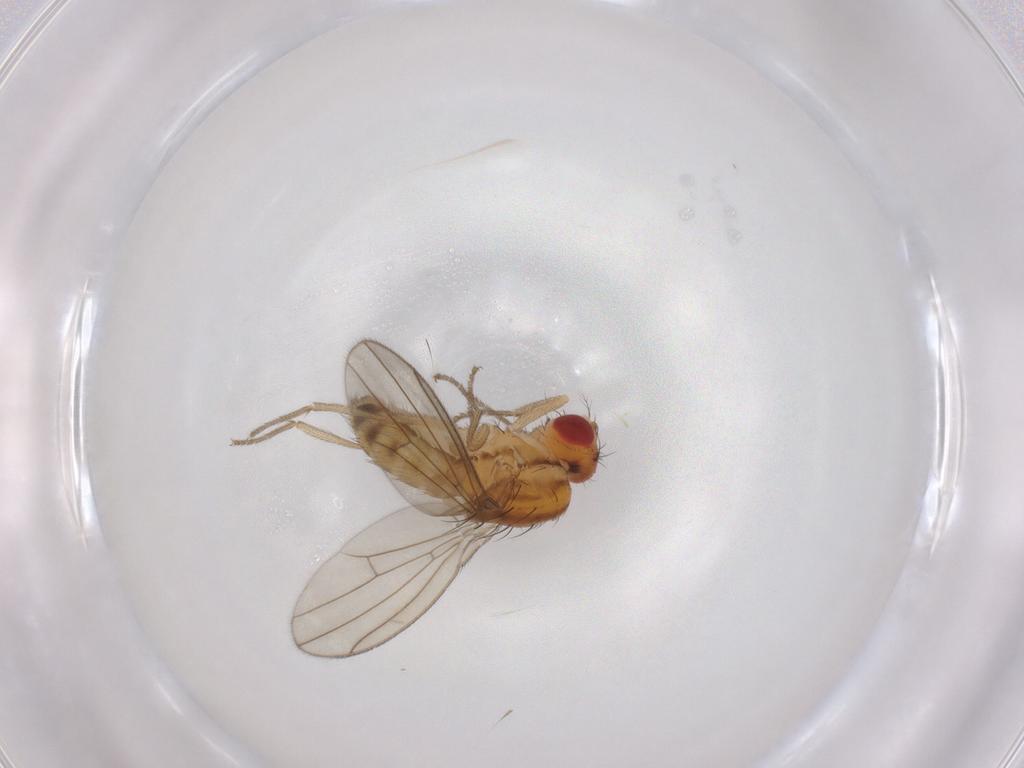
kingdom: Animalia
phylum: Arthropoda
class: Insecta
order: Diptera
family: Drosophilidae
